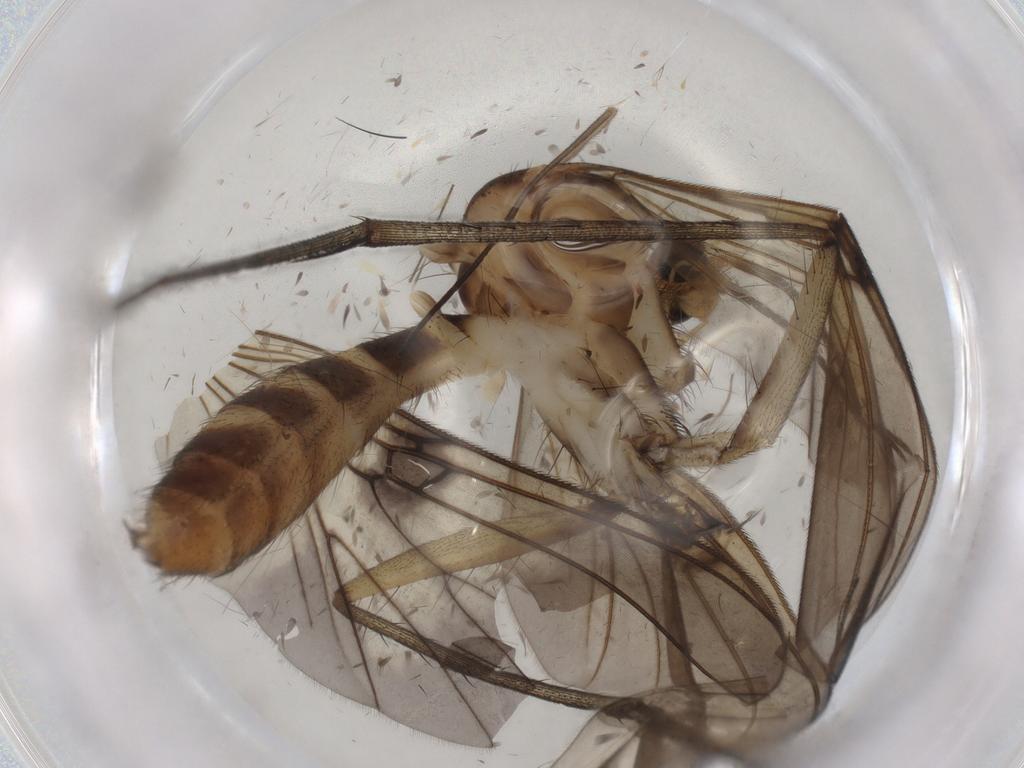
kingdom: Animalia
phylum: Arthropoda
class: Insecta
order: Diptera
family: Mycetophilidae
